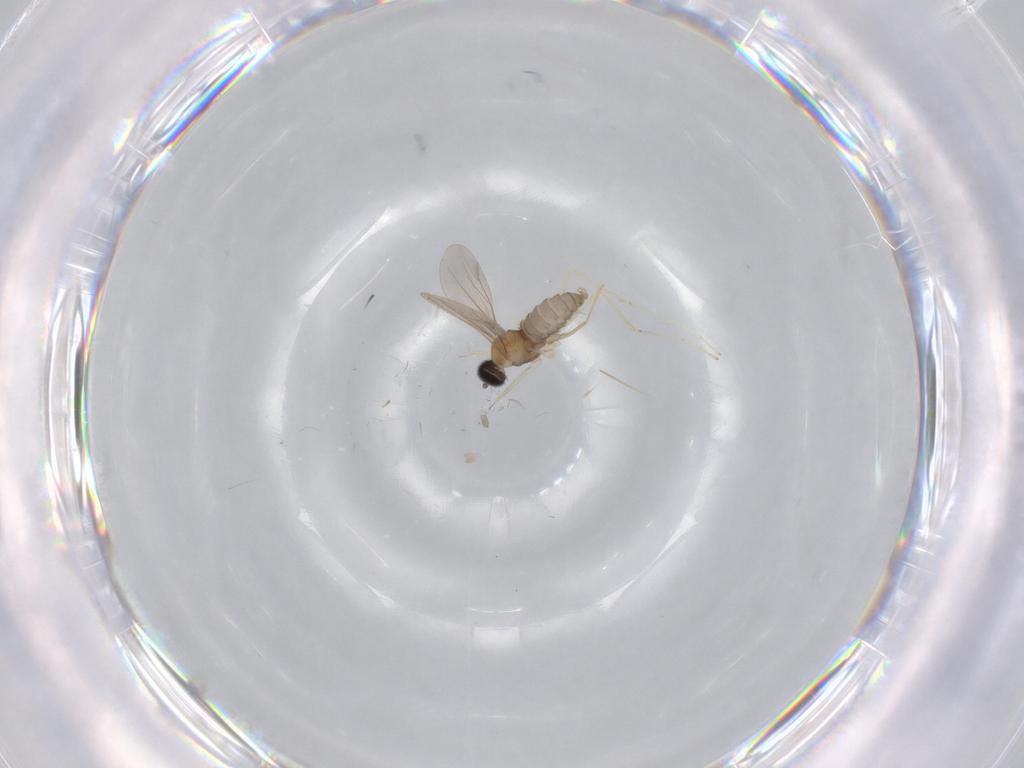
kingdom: Animalia
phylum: Arthropoda
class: Insecta
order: Diptera
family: Cecidomyiidae
